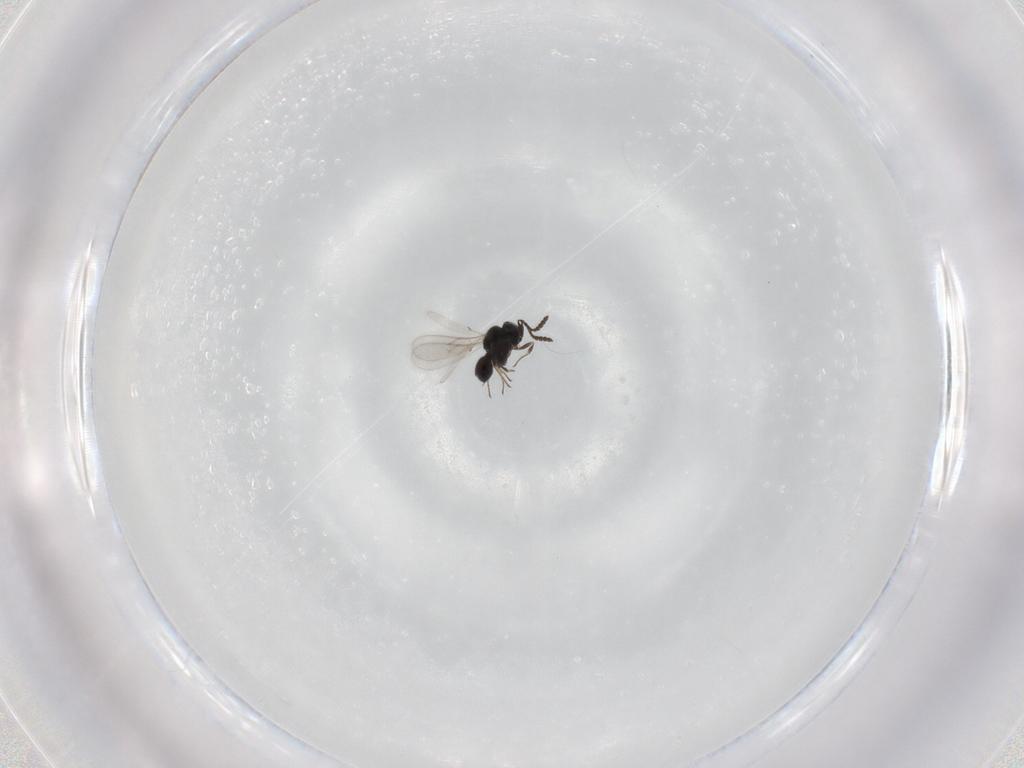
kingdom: Animalia
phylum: Arthropoda
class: Insecta
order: Hymenoptera
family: Scelionidae
